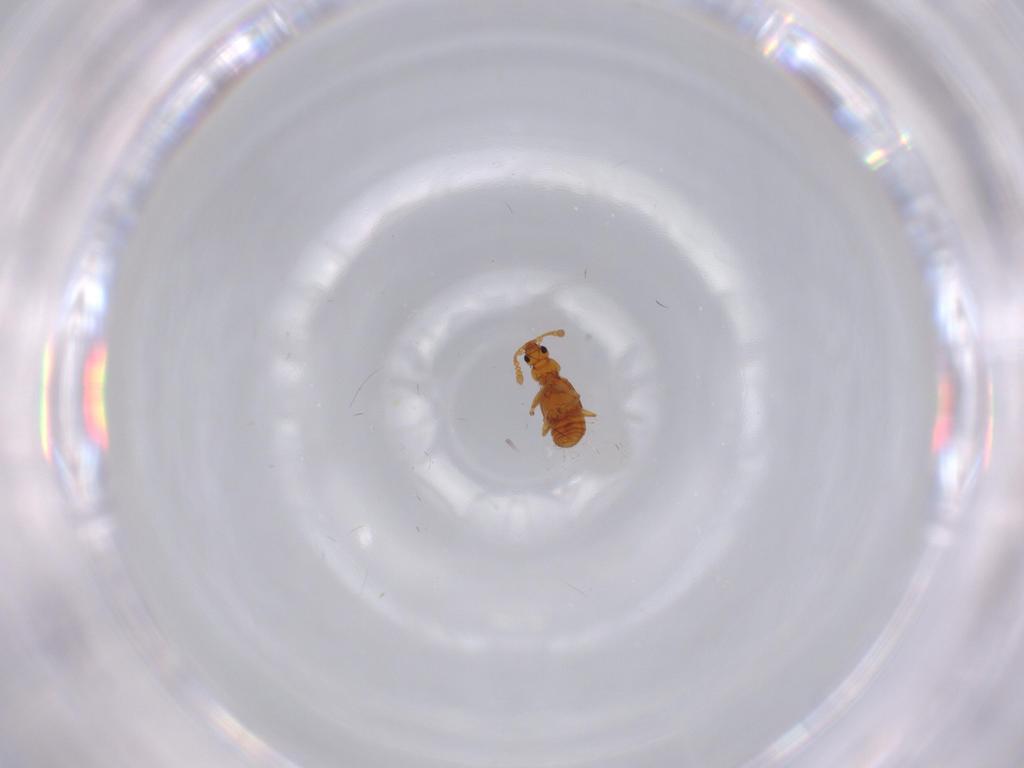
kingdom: Animalia
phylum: Arthropoda
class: Insecta
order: Coleoptera
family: Staphylinidae
